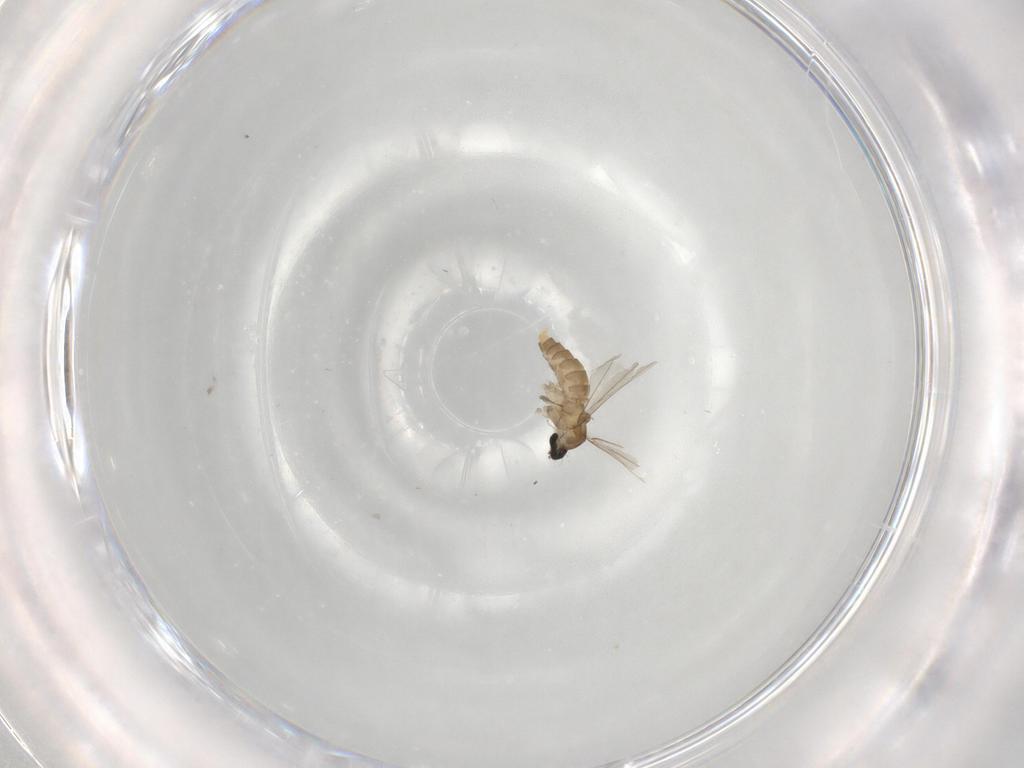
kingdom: Animalia
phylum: Arthropoda
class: Insecta
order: Diptera
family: Cecidomyiidae
